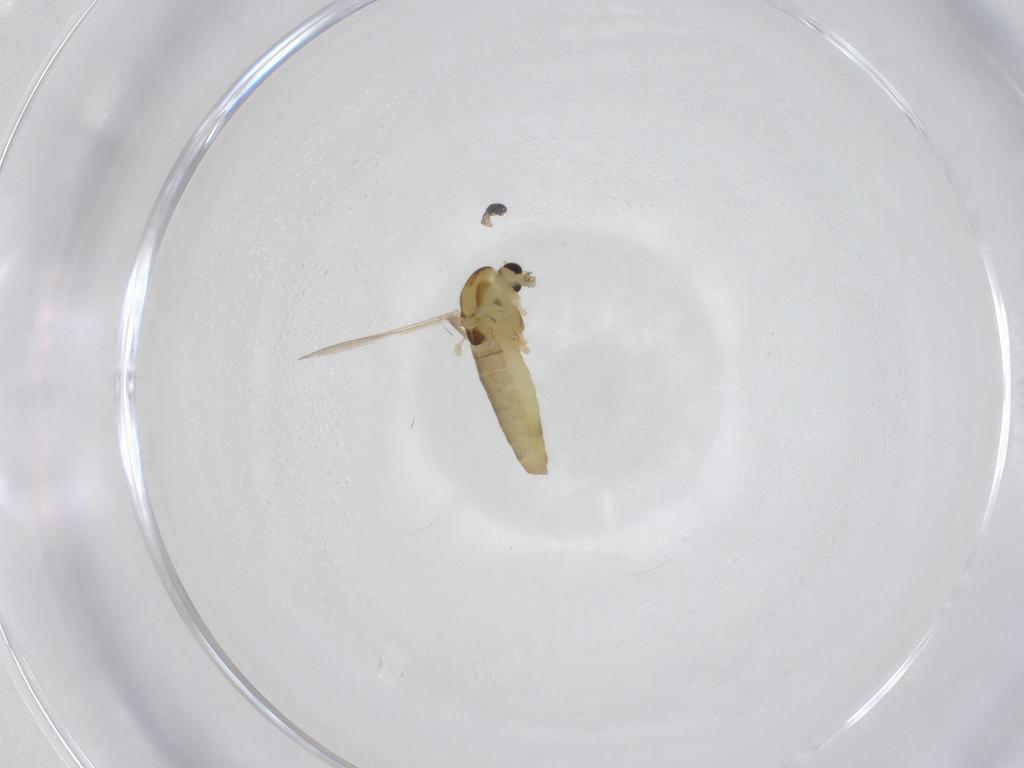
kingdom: Animalia
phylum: Arthropoda
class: Insecta
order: Diptera
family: Chironomidae
